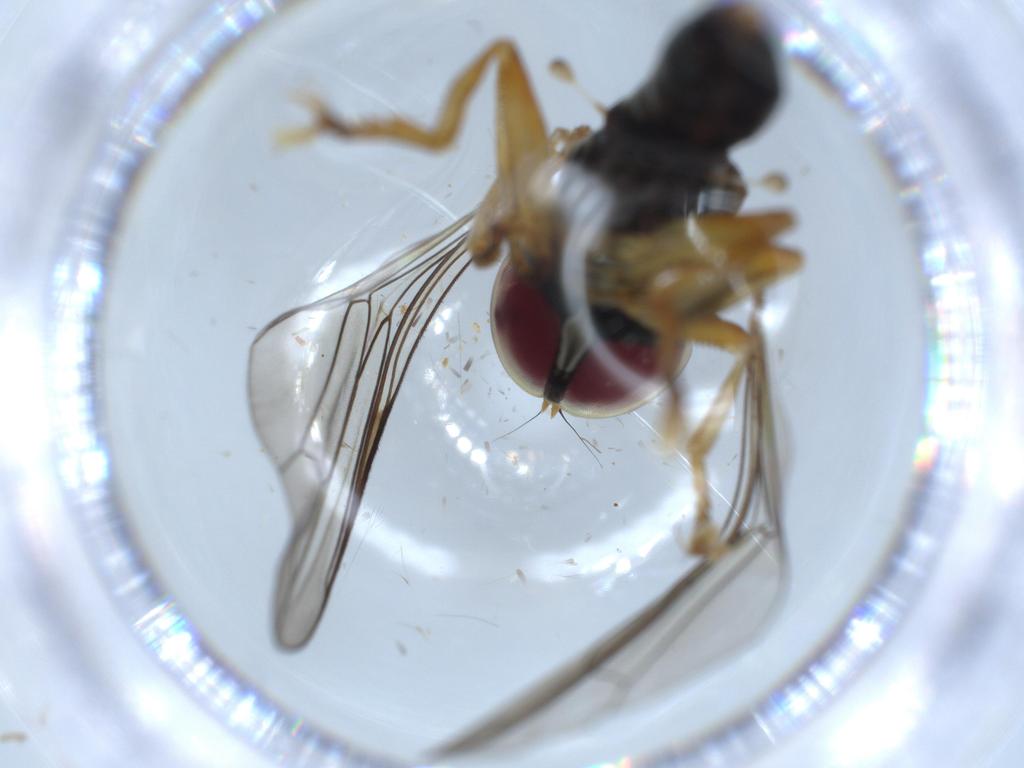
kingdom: Animalia
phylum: Arthropoda
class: Insecta
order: Diptera
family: Pipunculidae
